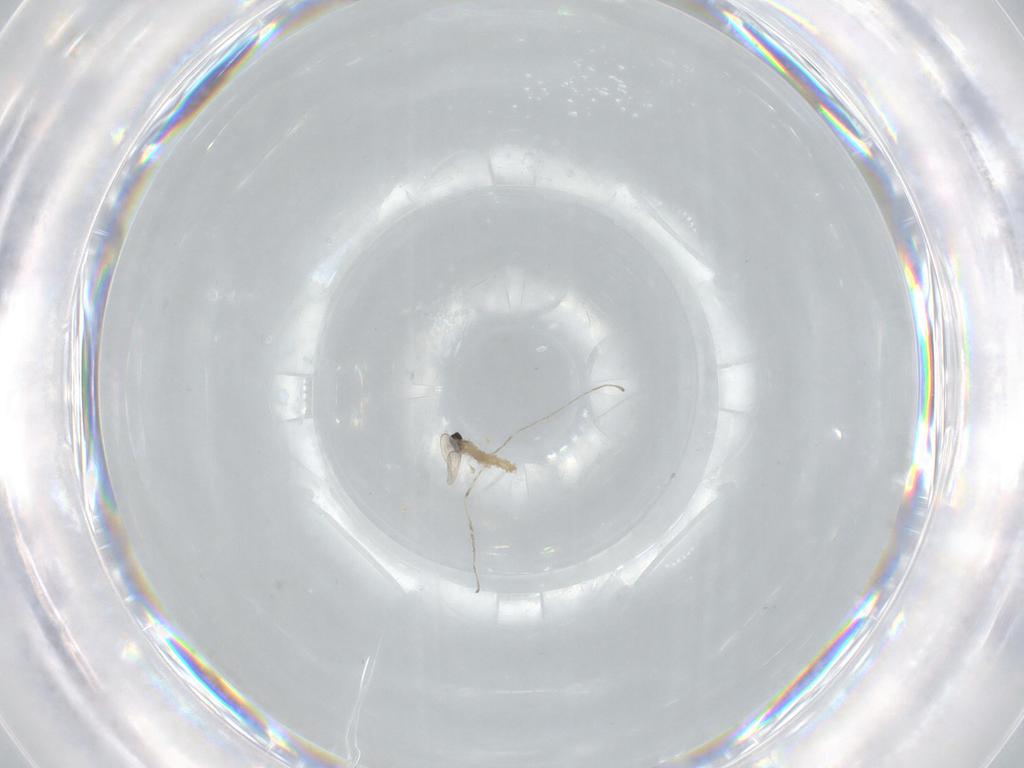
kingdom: Animalia
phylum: Arthropoda
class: Insecta
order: Diptera
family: Cecidomyiidae
